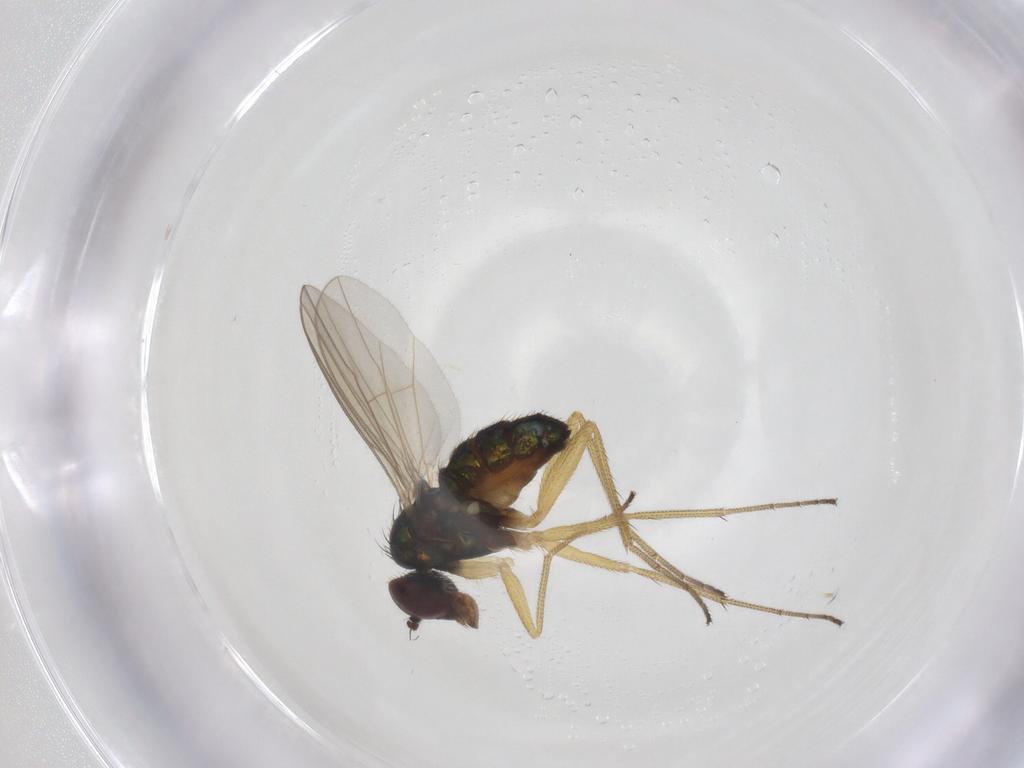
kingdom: Animalia
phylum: Arthropoda
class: Insecta
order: Diptera
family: Dolichopodidae
